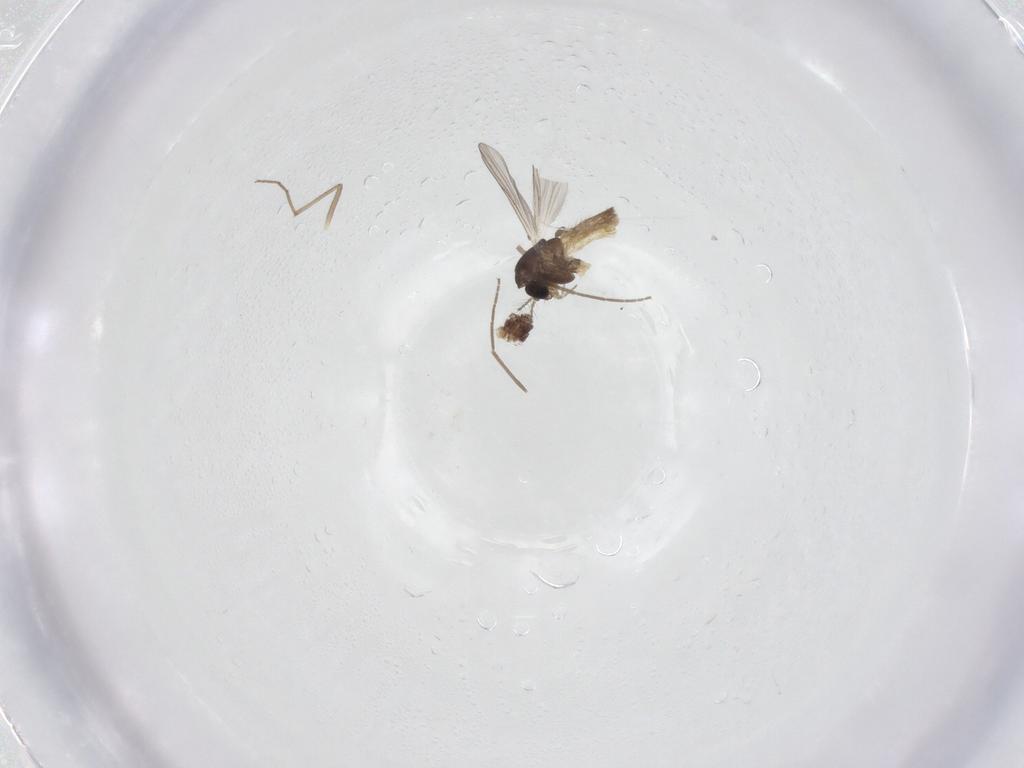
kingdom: Animalia
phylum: Arthropoda
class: Insecta
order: Diptera
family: Chironomidae
